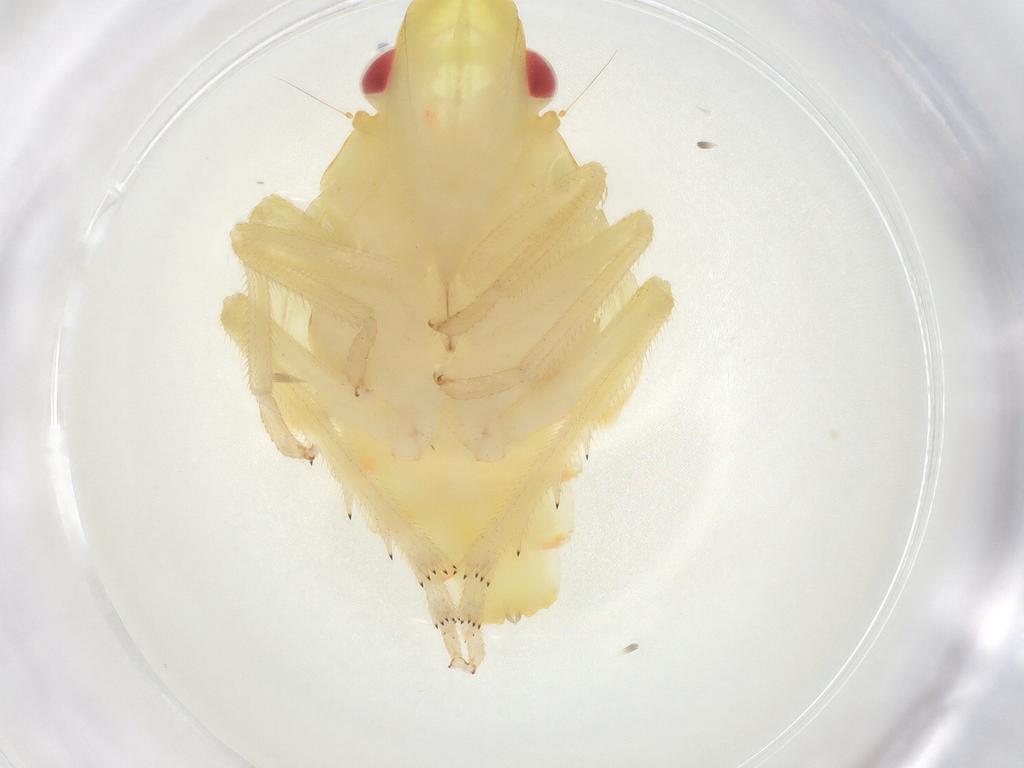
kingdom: Animalia
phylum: Arthropoda
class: Insecta
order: Hemiptera
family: Tropiduchidae
